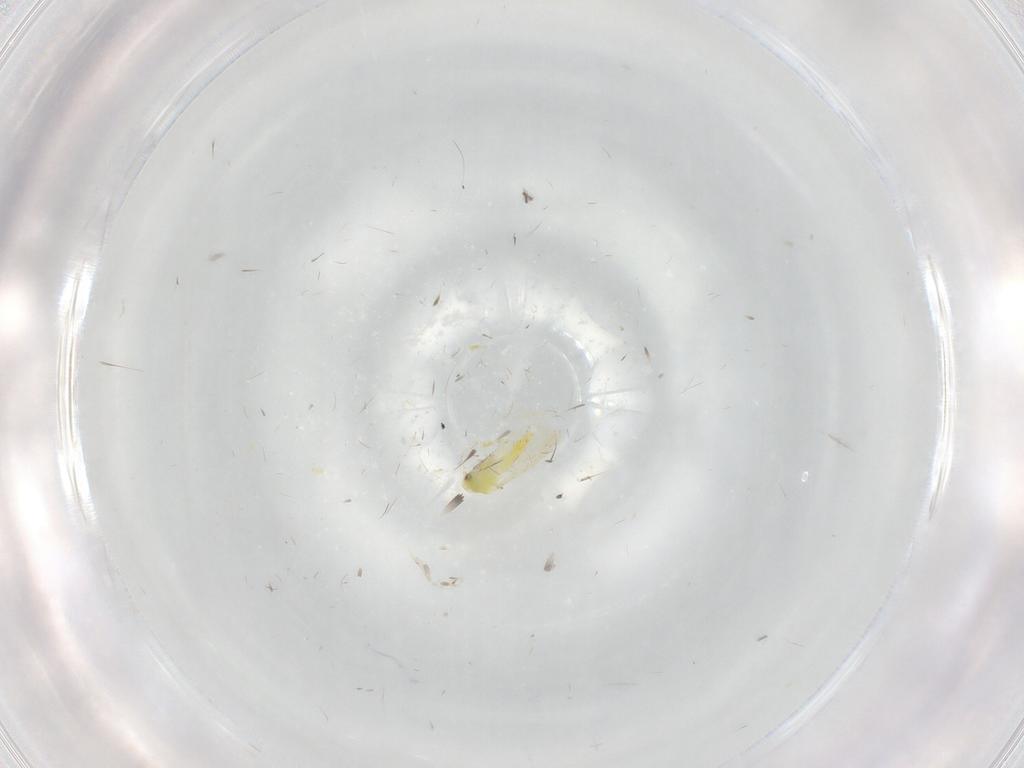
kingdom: Animalia
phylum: Arthropoda
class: Insecta
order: Hemiptera
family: Aleyrodidae
